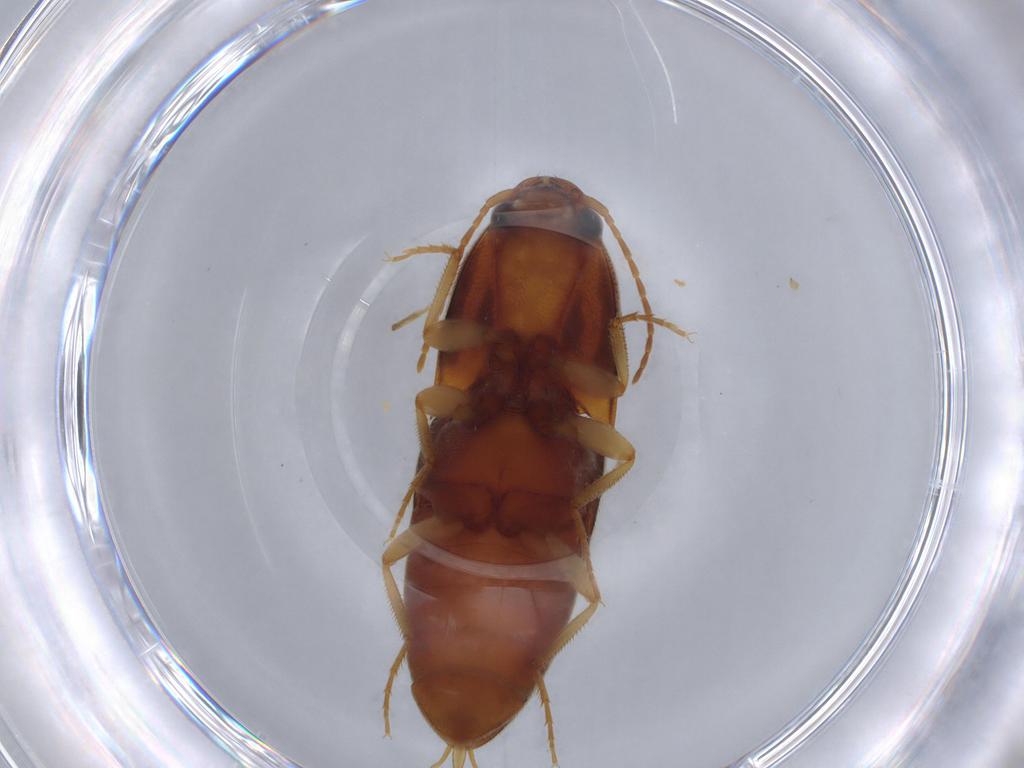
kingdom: Animalia
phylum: Arthropoda
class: Insecta
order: Coleoptera
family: Elateridae
